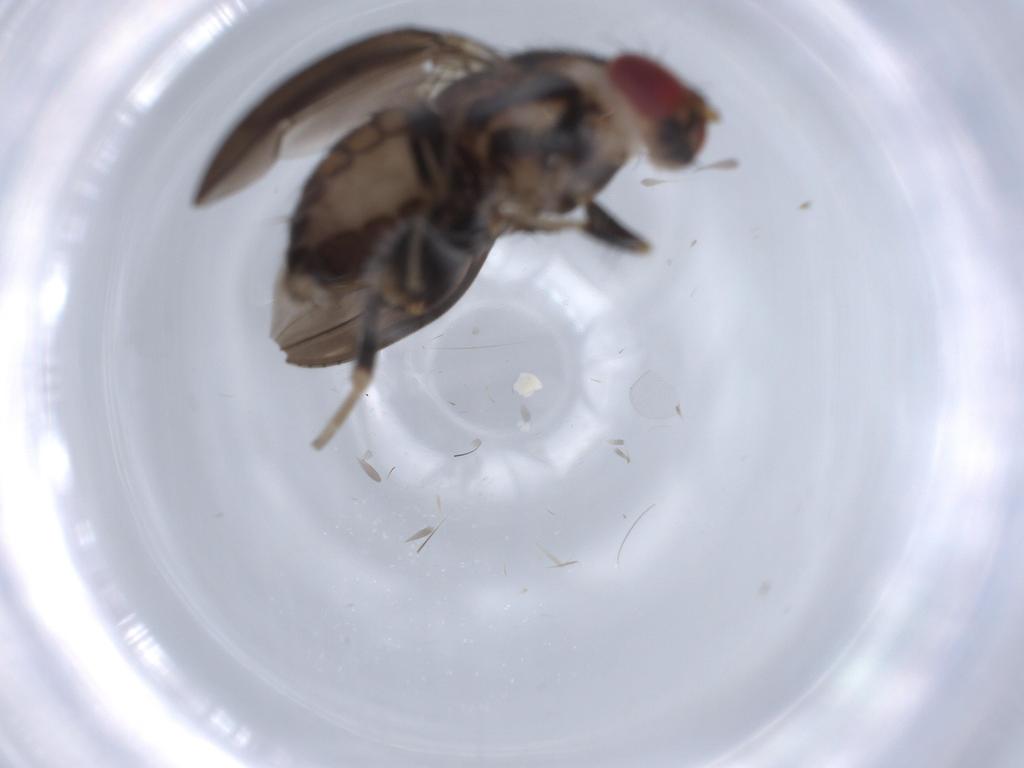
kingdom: Animalia
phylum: Arthropoda
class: Insecta
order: Diptera
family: Drosophilidae
